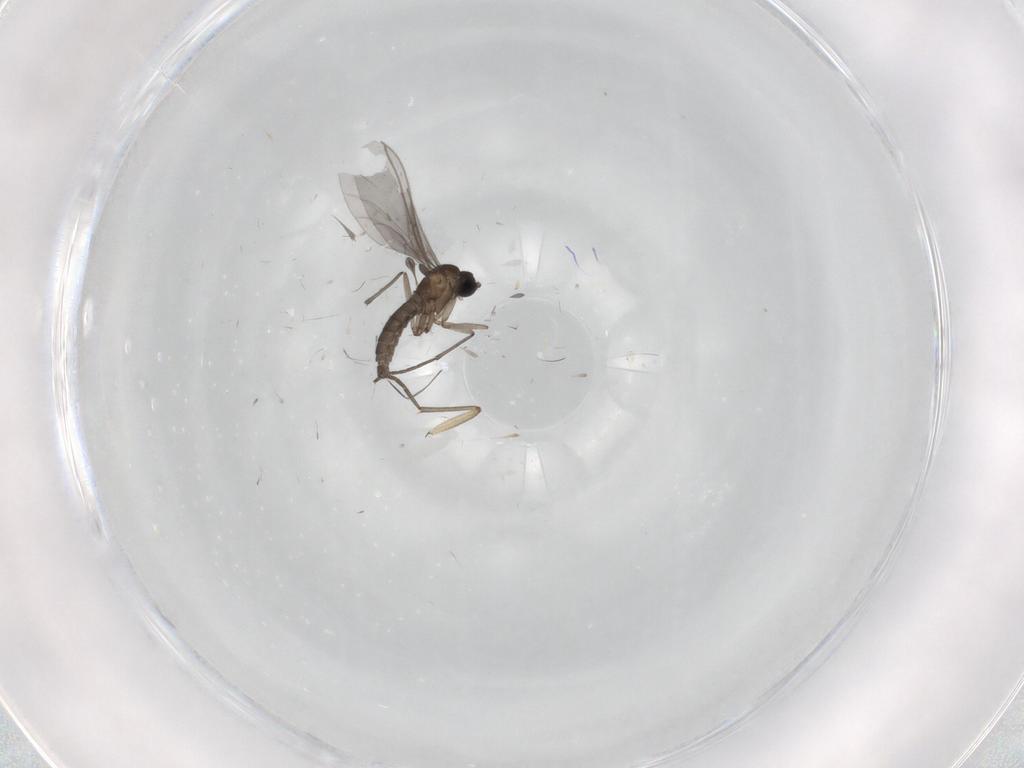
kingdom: Animalia
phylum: Arthropoda
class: Insecta
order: Diptera
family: Sciaridae
